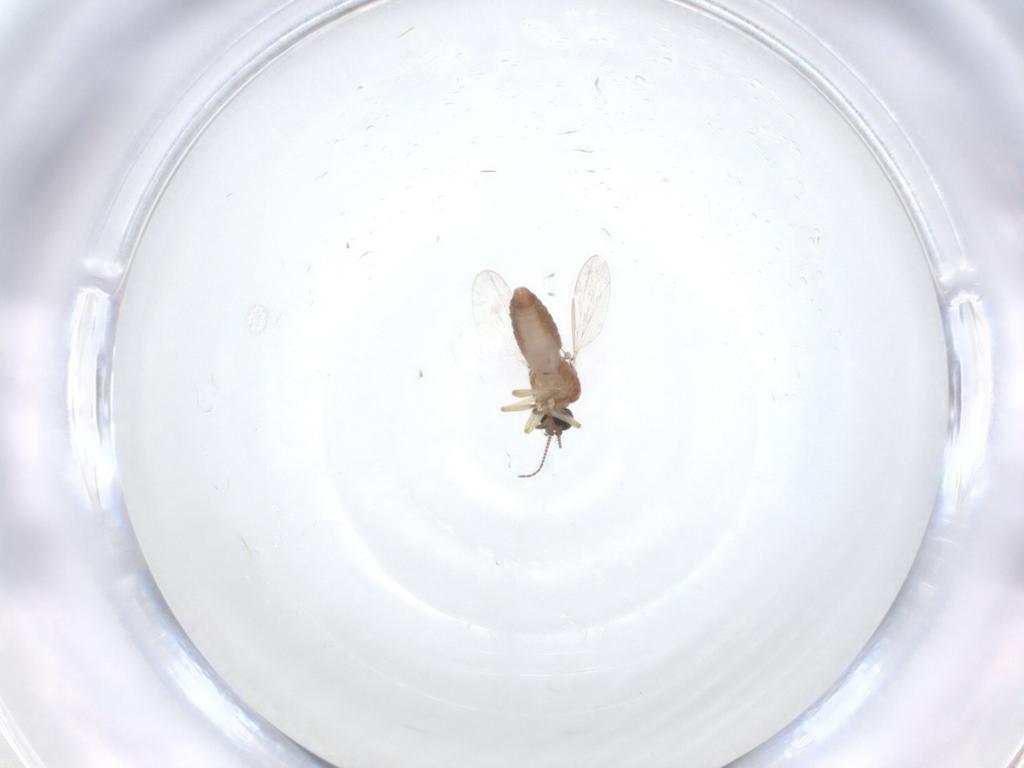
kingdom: Animalia
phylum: Arthropoda
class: Insecta
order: Diptera
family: Ceratopogonidae
